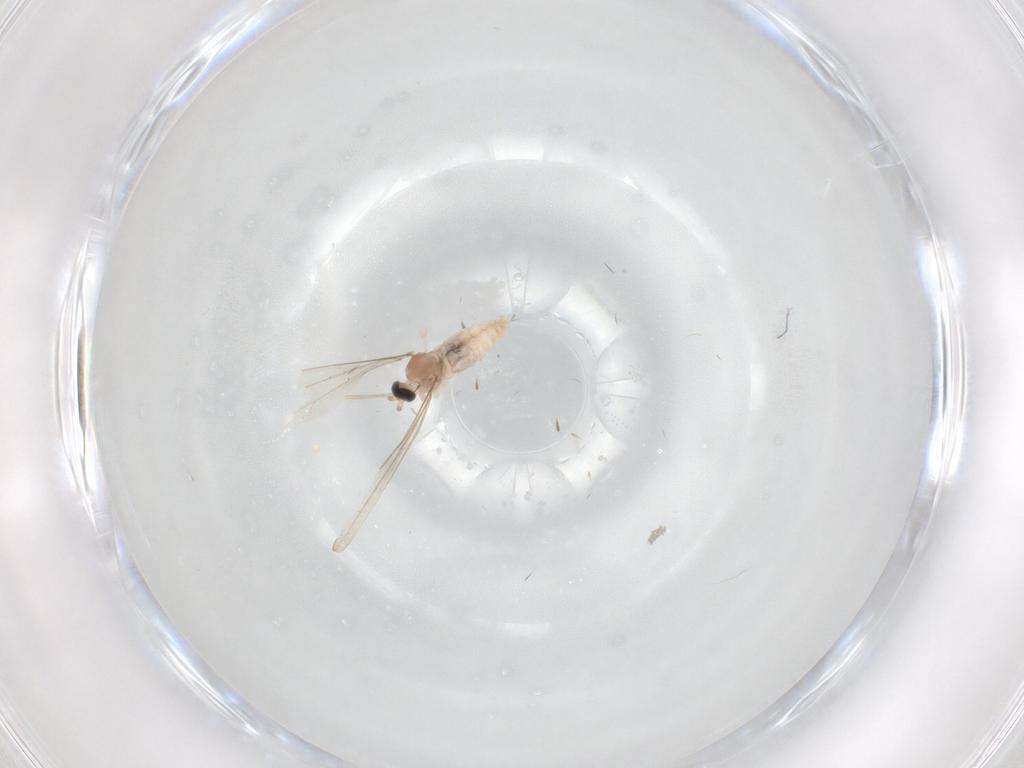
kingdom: Animalia
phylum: Arthropoda
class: Insecta
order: Diptera
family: Cecidomyiidae
